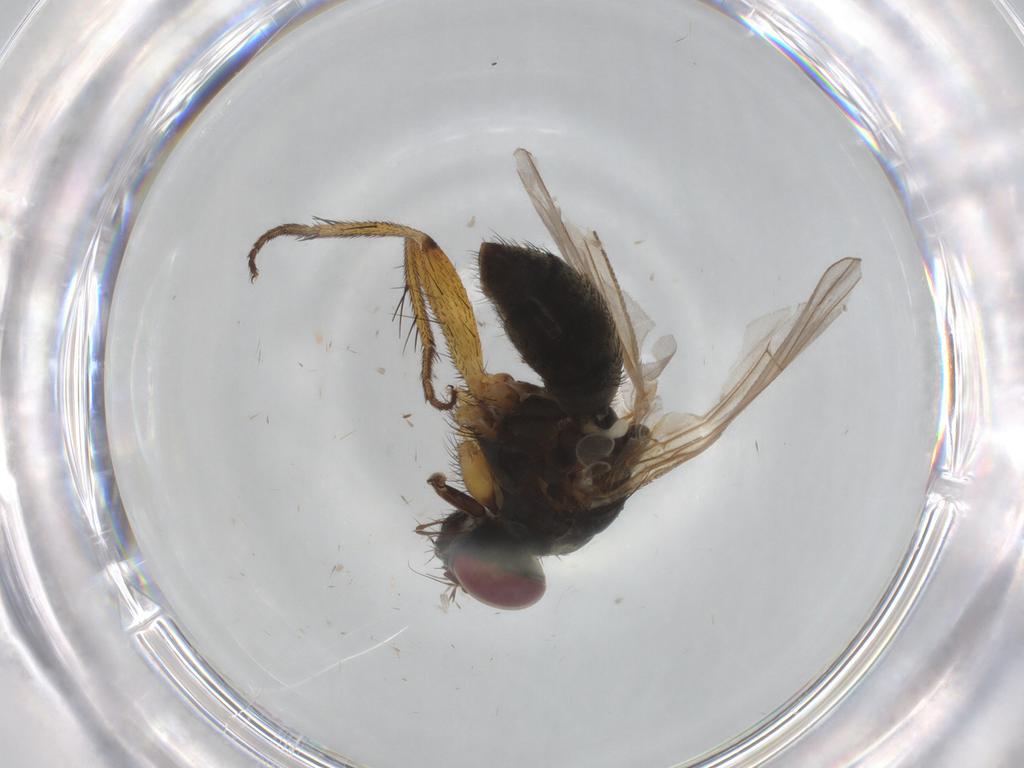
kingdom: Animalia
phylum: Arthropoda
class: Insecta
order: Diptera
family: Muscidae
